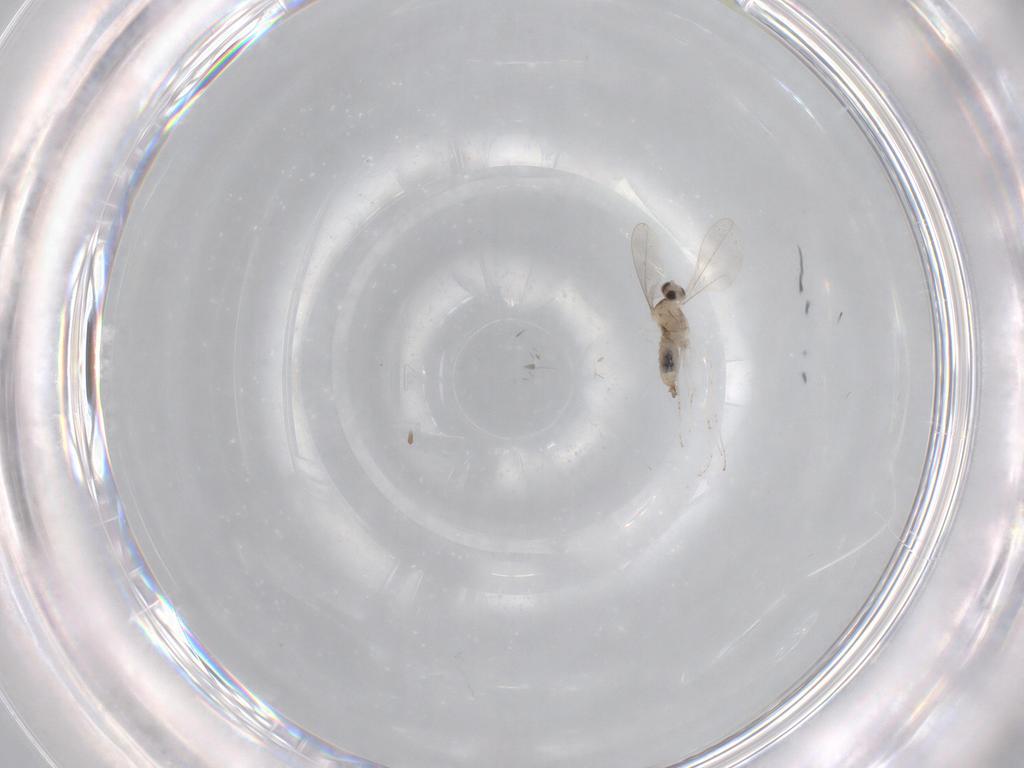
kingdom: Animalia
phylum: Arthropoda
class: Insecta
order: Diptera
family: Cecidomyiidae
